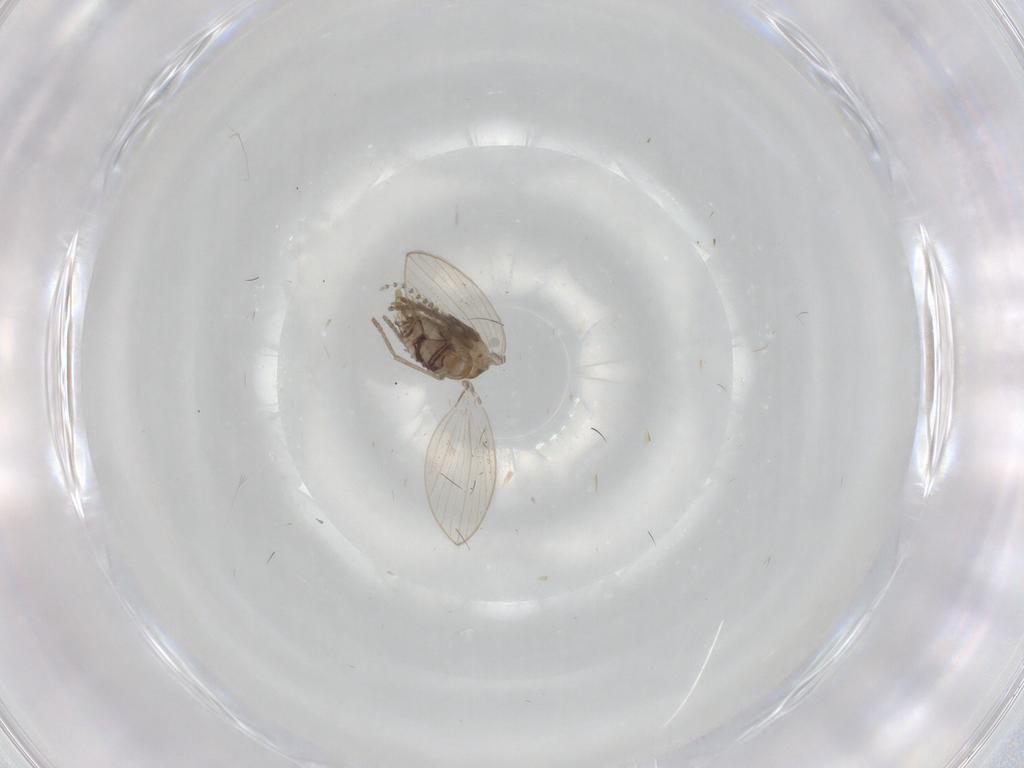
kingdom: Animalia
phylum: Arthropoda
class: Insecta
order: Diptera
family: Psychodidae
